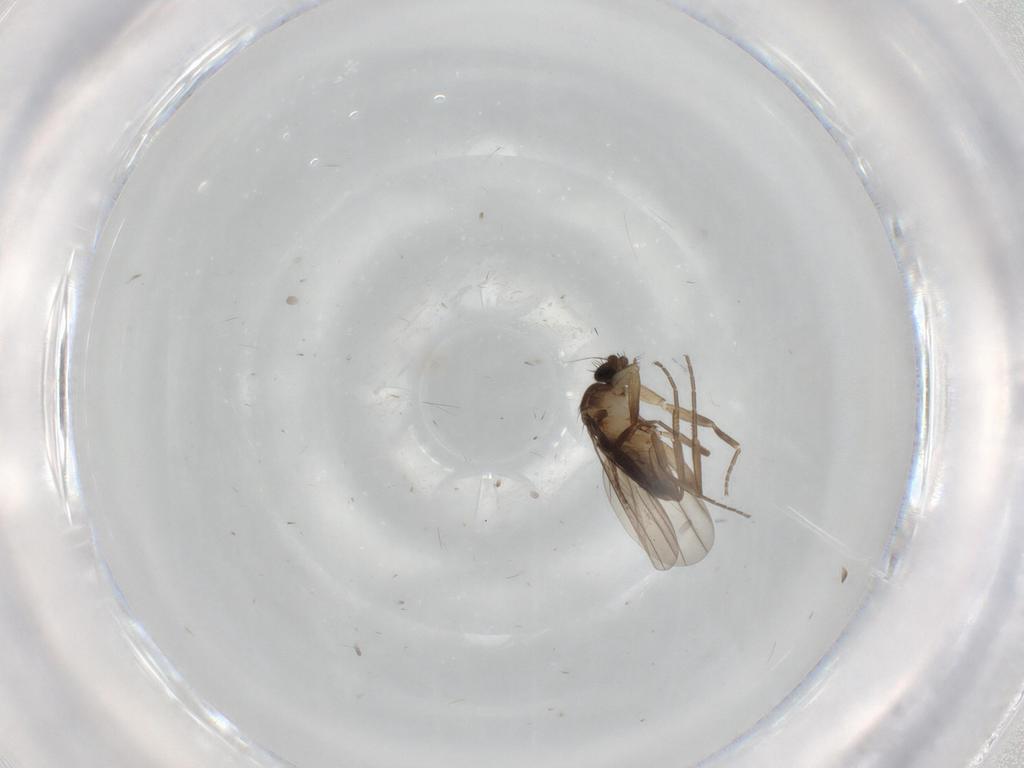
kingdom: Animalia
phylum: Arthropoda
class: Insecta
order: Diptera
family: Phoridae
